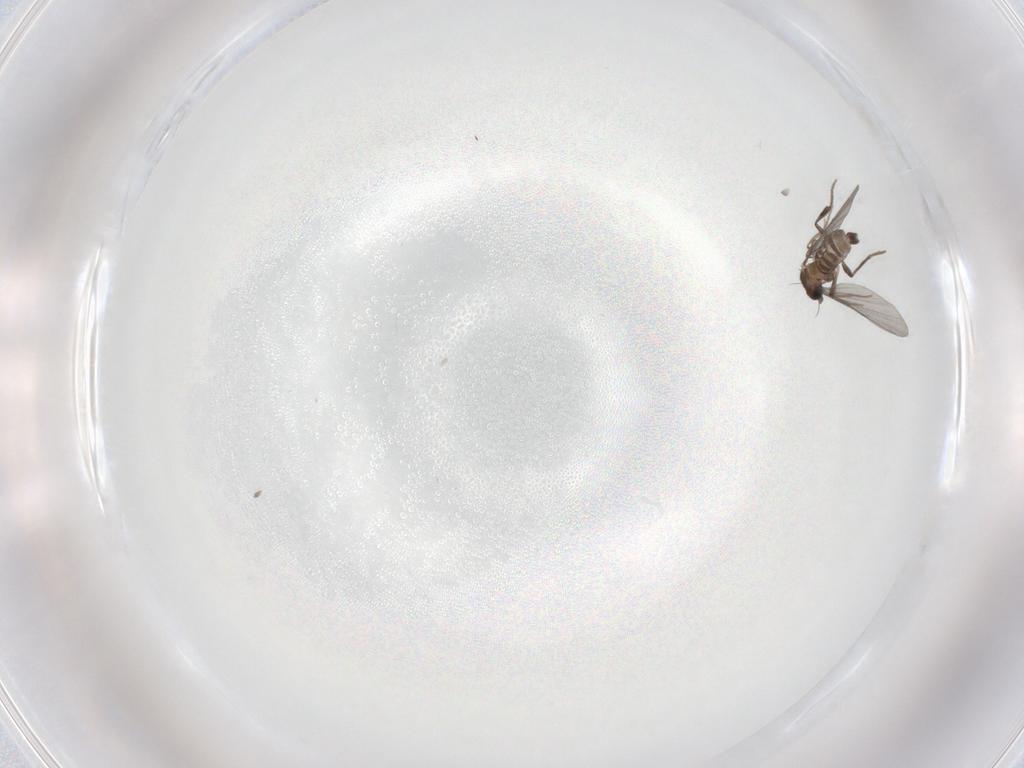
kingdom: Animalia
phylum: Arthropoda
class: Insecta
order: Diptera
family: Phoridae
